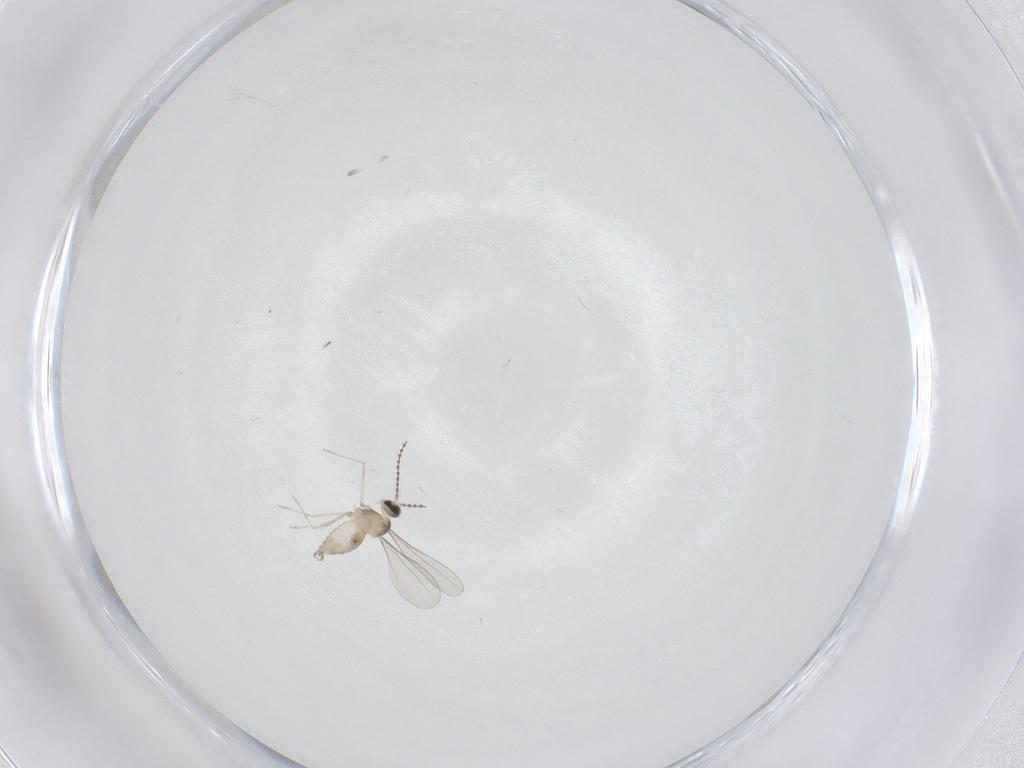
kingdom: Animalia
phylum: Arthropoda
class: Insecta
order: Diptera
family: Cecidomyiidae
